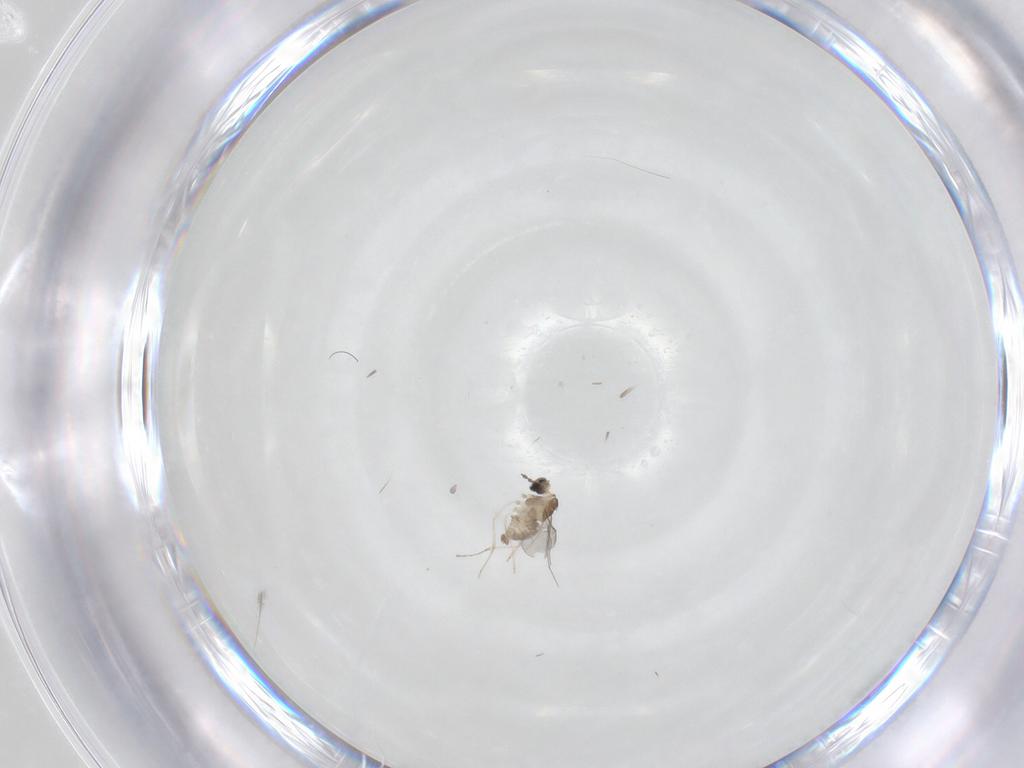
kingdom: Animalia
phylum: Arthropoda
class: Insecta
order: Diptera
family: Cecidomyiidae
